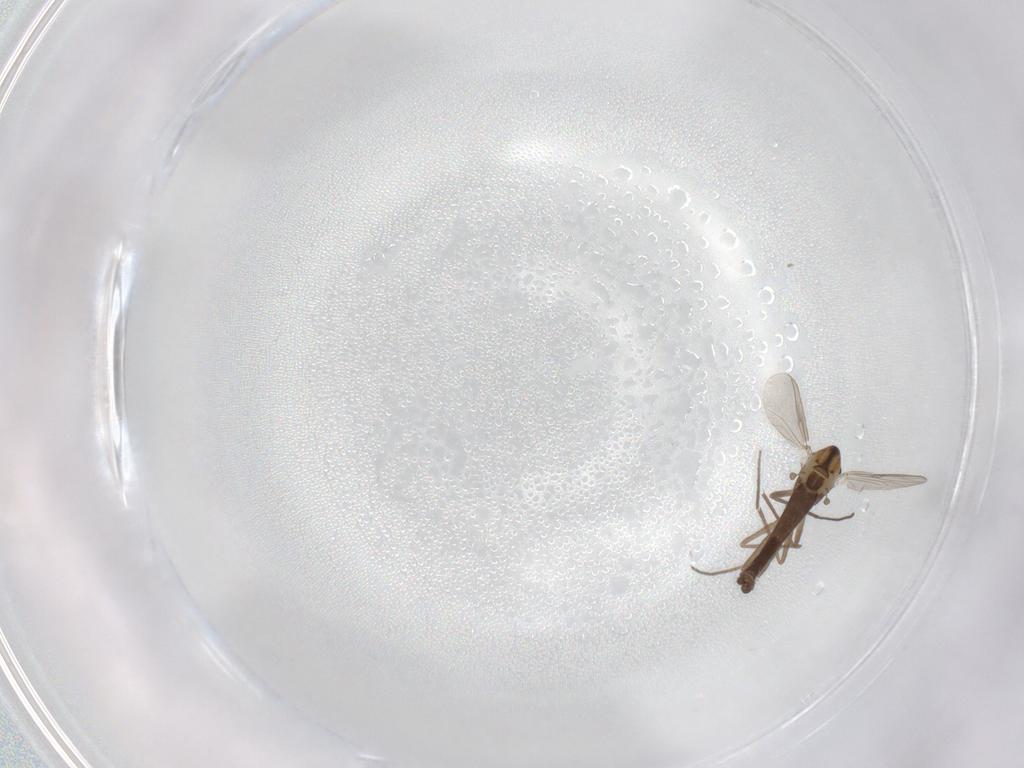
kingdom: Animalia
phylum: Arthropoda
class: Insecta
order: Diptera
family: Chironomidae
